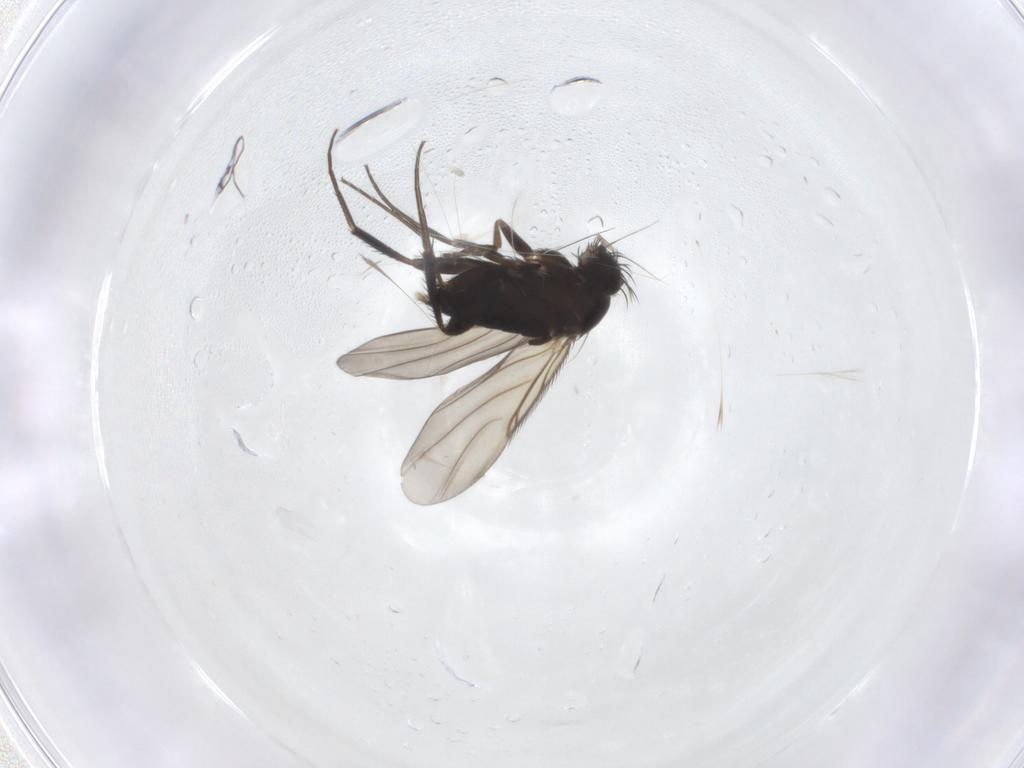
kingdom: Animalia
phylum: Arthropoda
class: Insecta
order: Diptera
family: Phoridae
